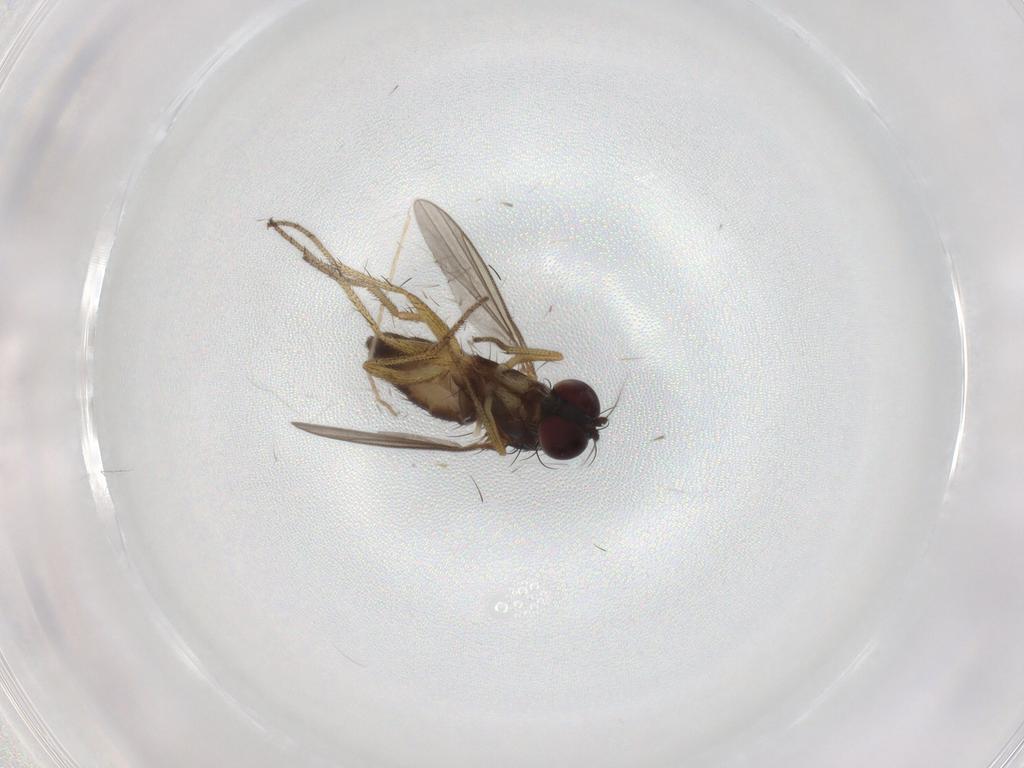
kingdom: Animalia
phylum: Arthropoda
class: Insecta
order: Diptera
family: Dolichopodidae
